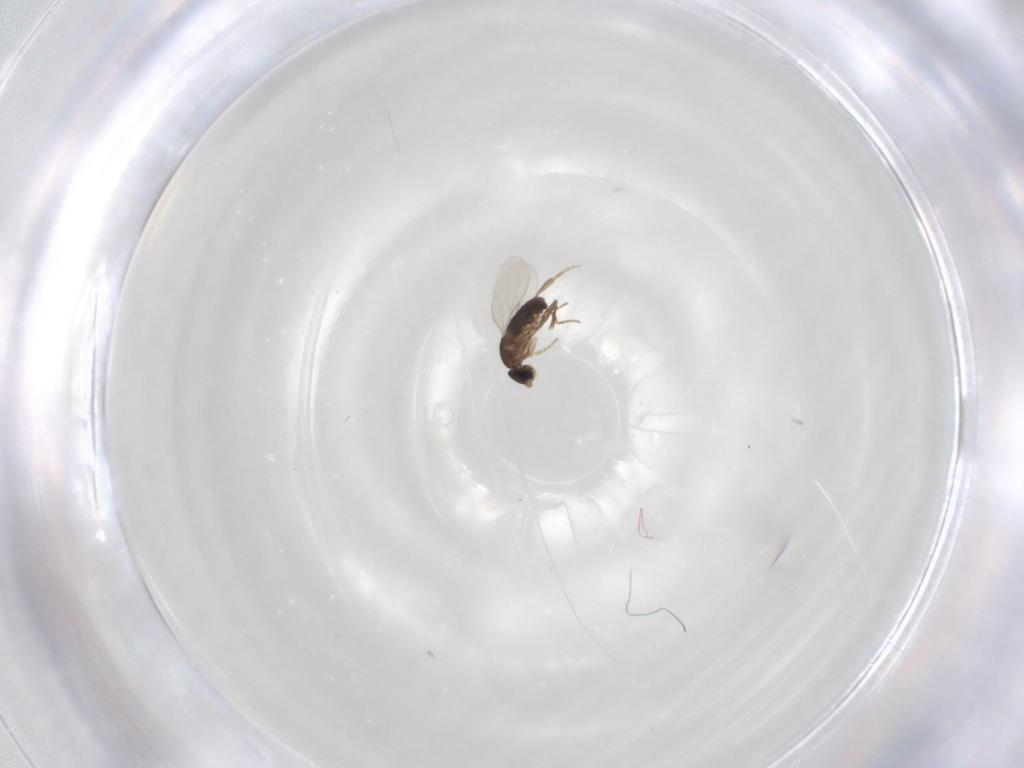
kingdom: Animalia
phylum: Arthropoda
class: Insecta
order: Diptera
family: Phoridae
